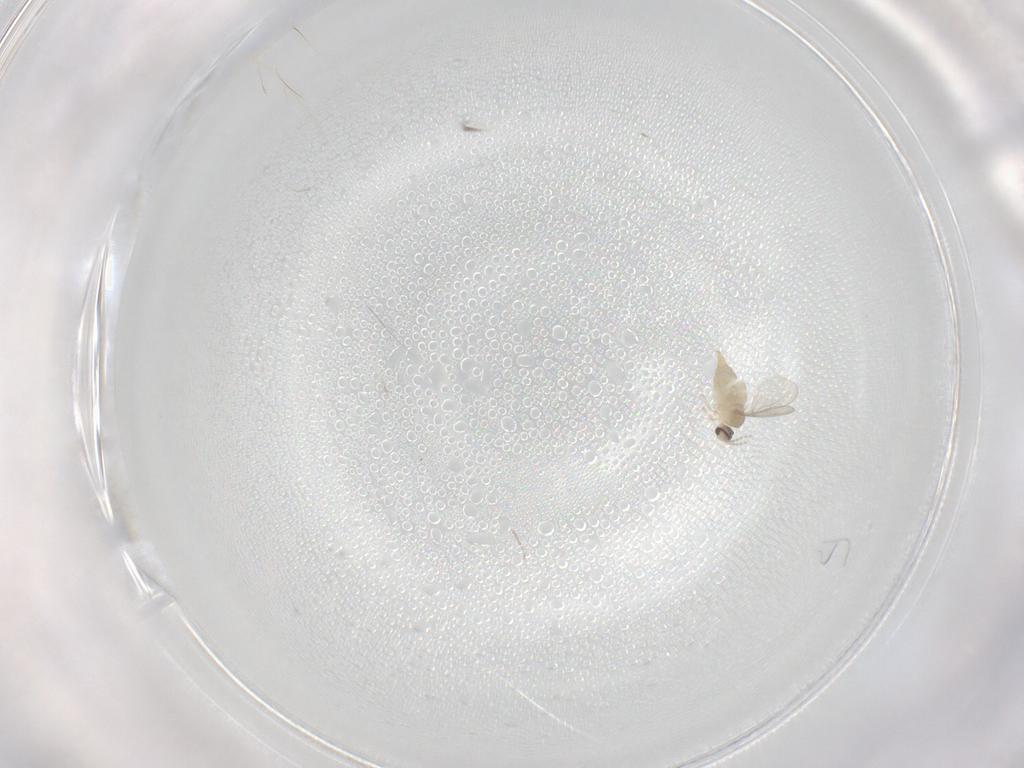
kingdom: Animalia
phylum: Arthropoda
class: Insecta
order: Diptera
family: Cecidomyiidae
